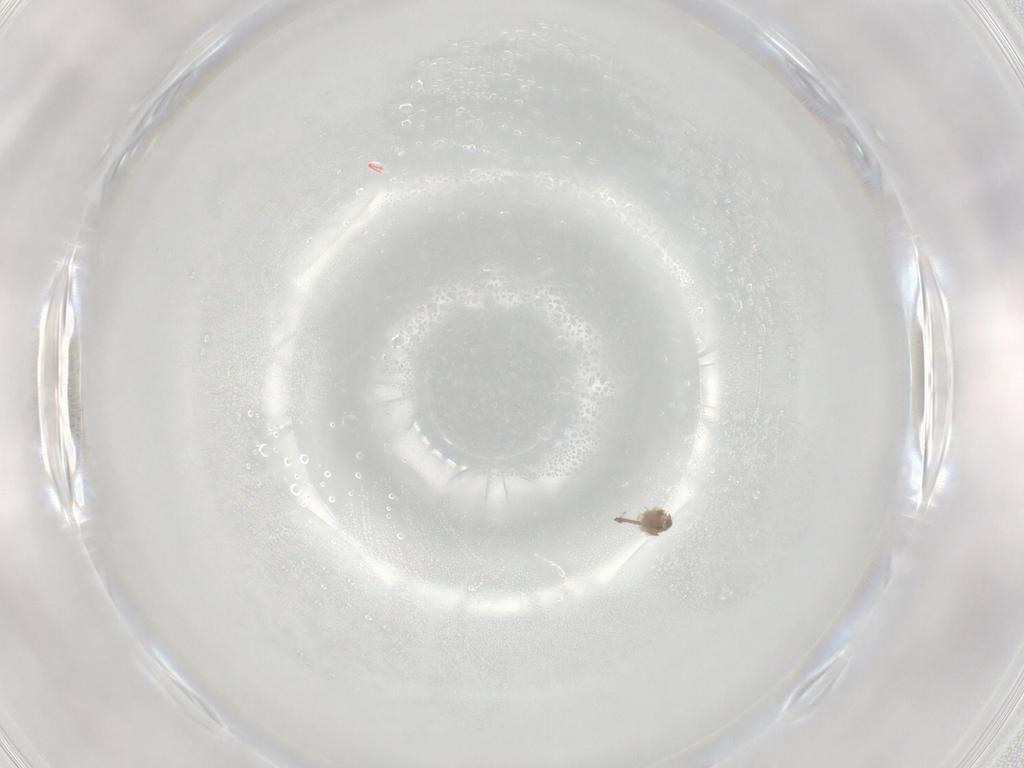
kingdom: Animalia
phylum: Arthropoda
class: Insecta
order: Diptera
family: Cecidomyiidae
